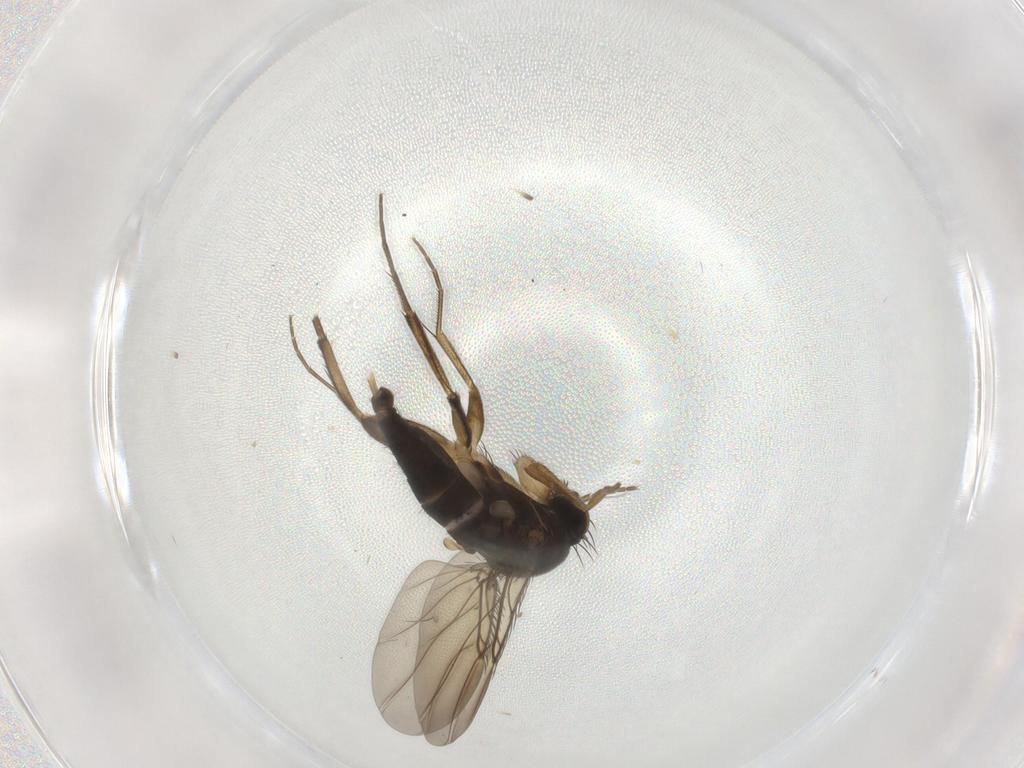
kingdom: Animalia
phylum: Arthropoda
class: Insecta
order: Diptera
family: Phoridae
